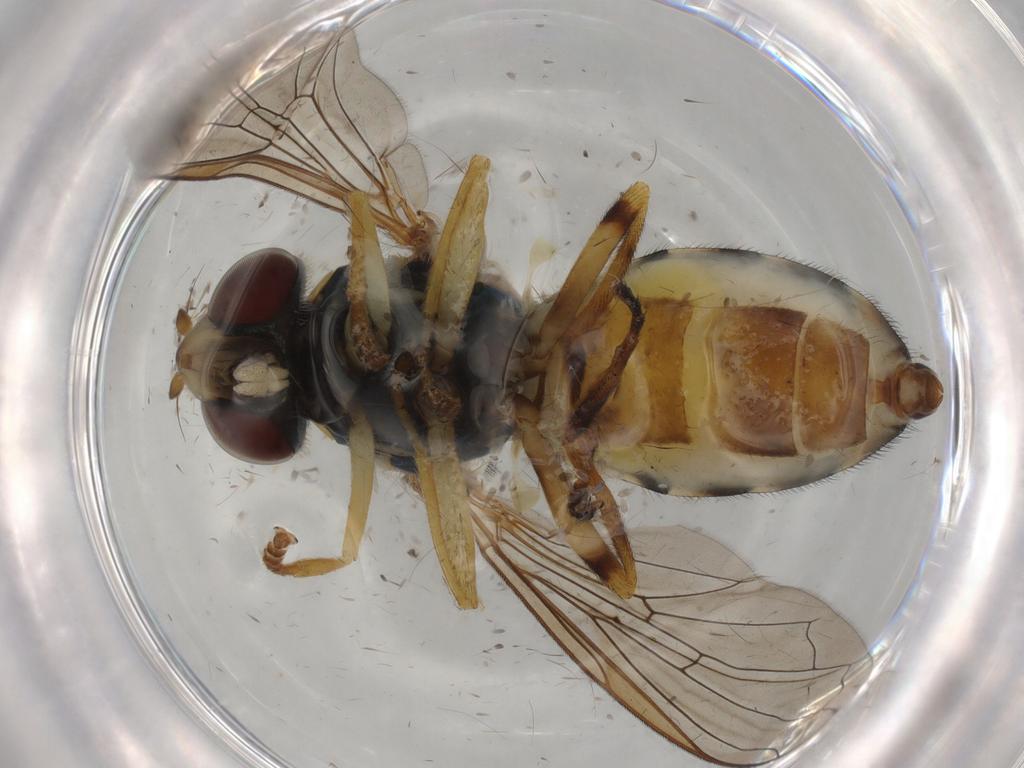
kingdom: Animalia
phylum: Arthropoda
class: Insecta
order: Diptera
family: Syrphidae
